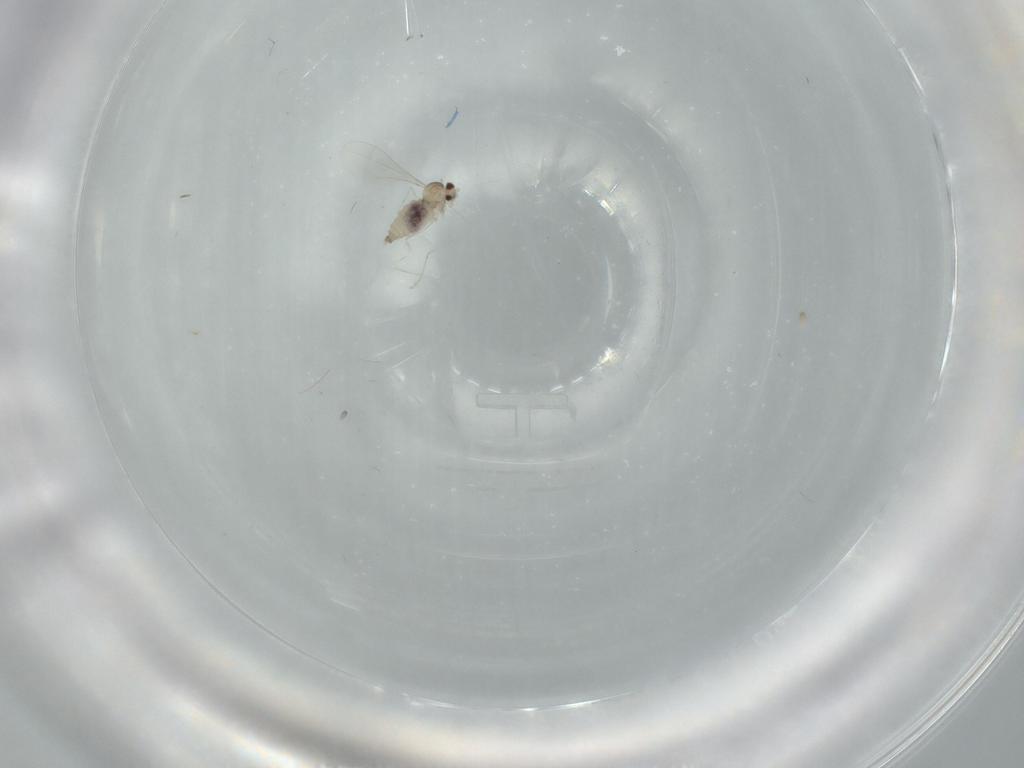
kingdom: Animalia
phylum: Arthropoda
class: Insecta
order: Diptera
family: Cecidomyiidae
